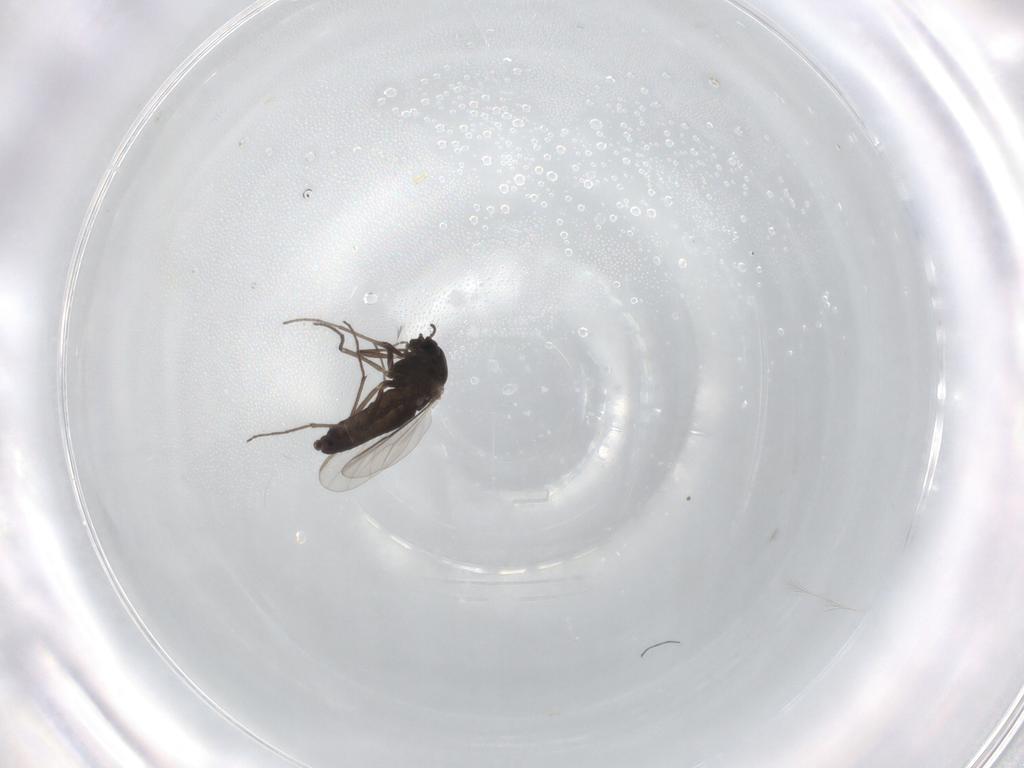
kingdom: Animalia
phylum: Arthropoda
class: Insecta
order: Diptera
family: Chironomidae
